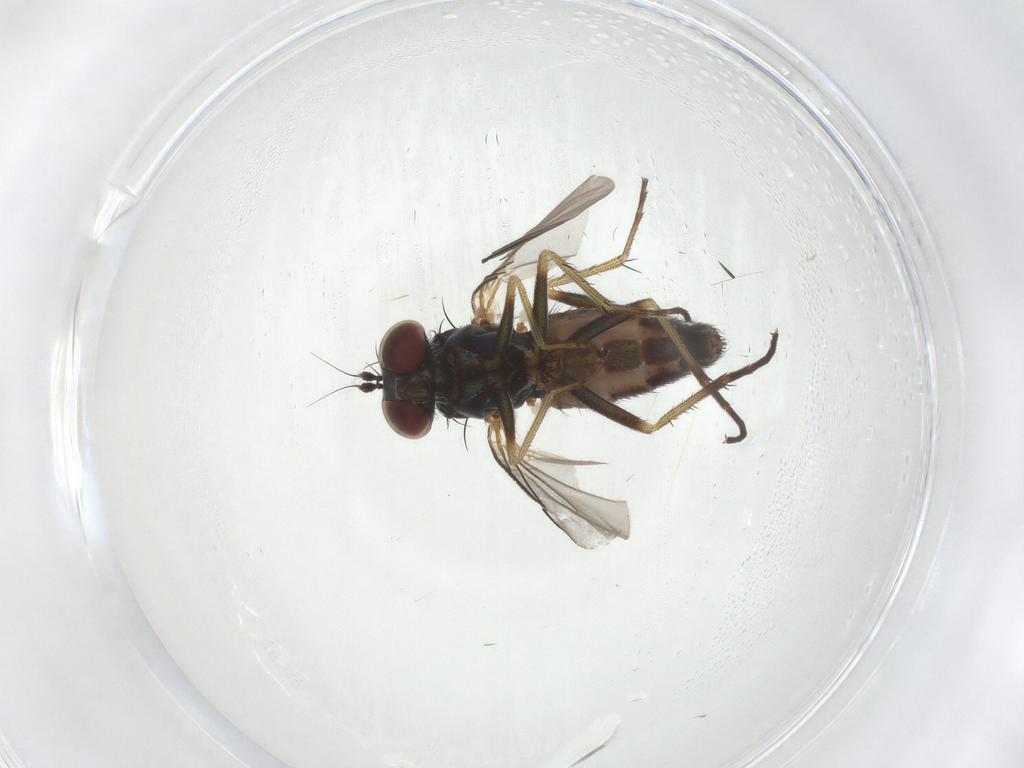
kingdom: Animalia
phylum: Arthropoda
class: Insecta
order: Diptera
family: Dolichopodidae
